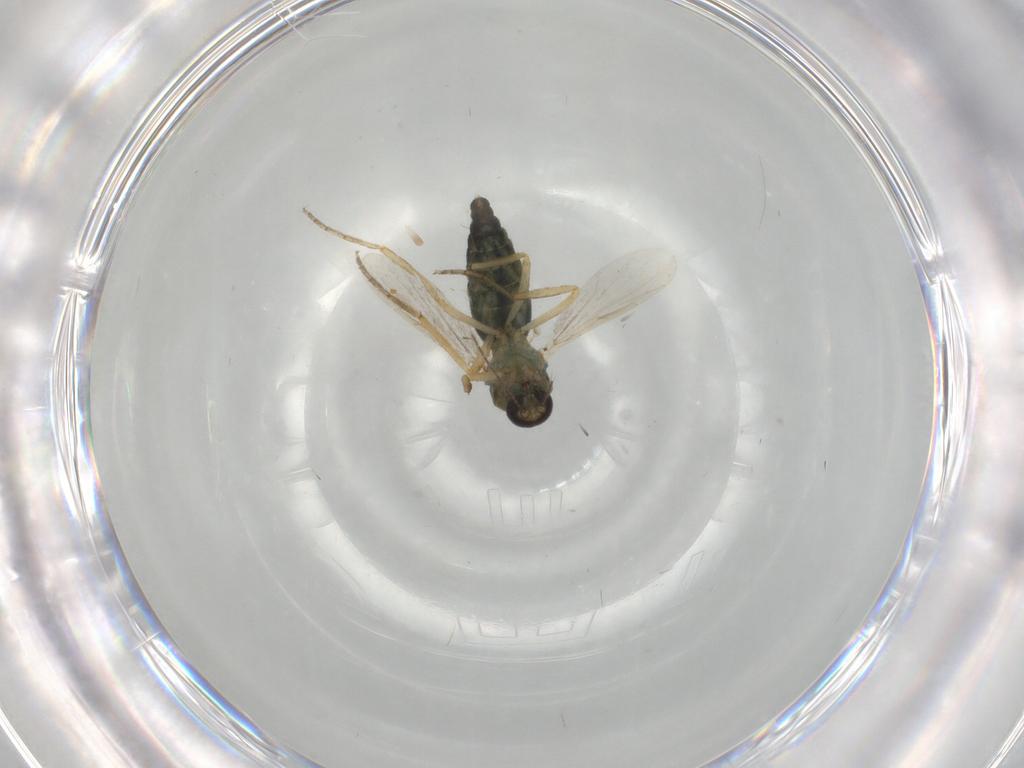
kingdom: Animalia
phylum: Arthropoda
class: Insecta
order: Diptera
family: Ceratopogonidae
